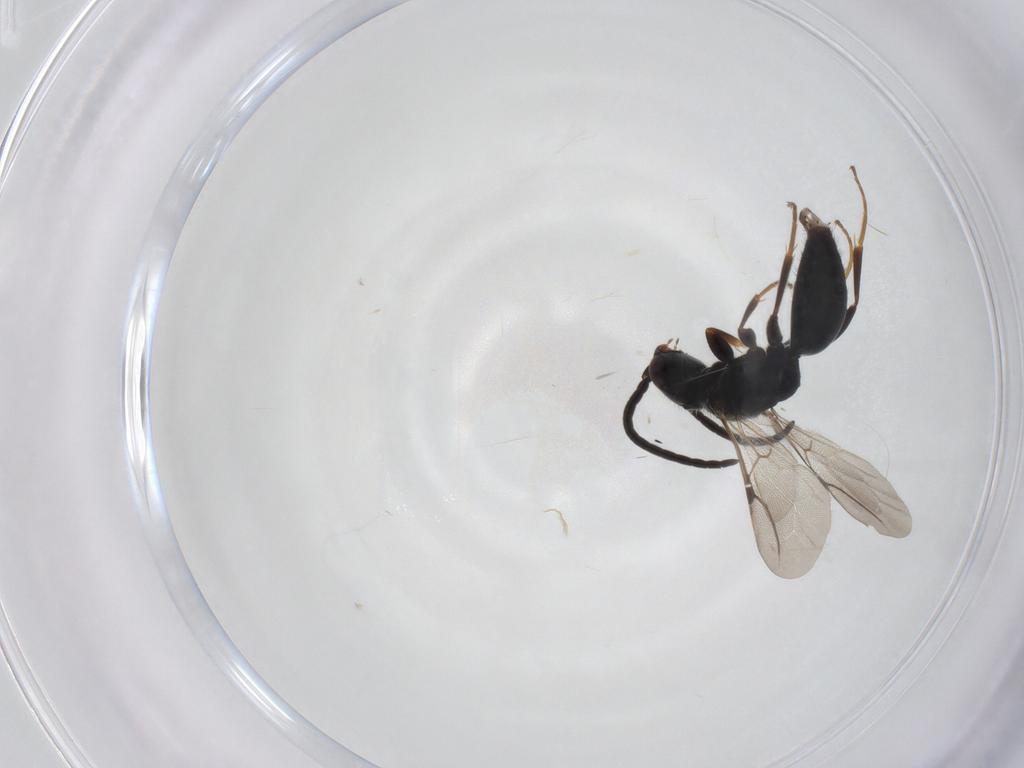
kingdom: Animalia
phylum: Arthropoda
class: Insecta
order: Hymenoptera
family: Bethylidae
